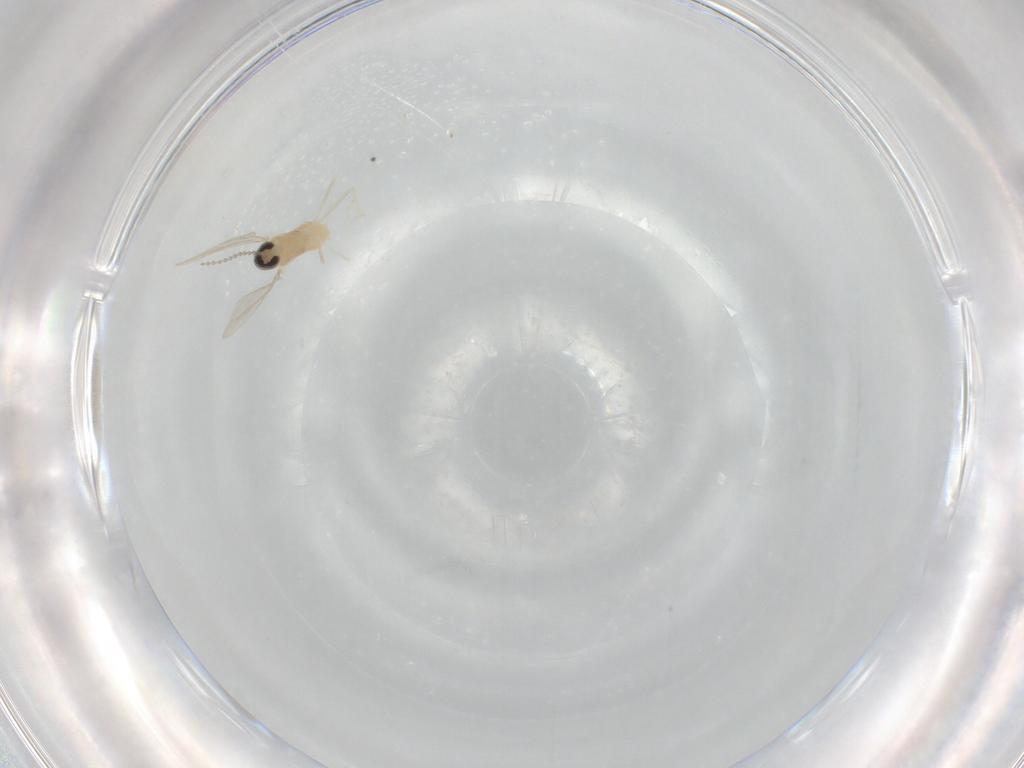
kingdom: Animalia
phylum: Arthropoda
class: Insecta
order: Diptera
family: Cecidomyiidae
